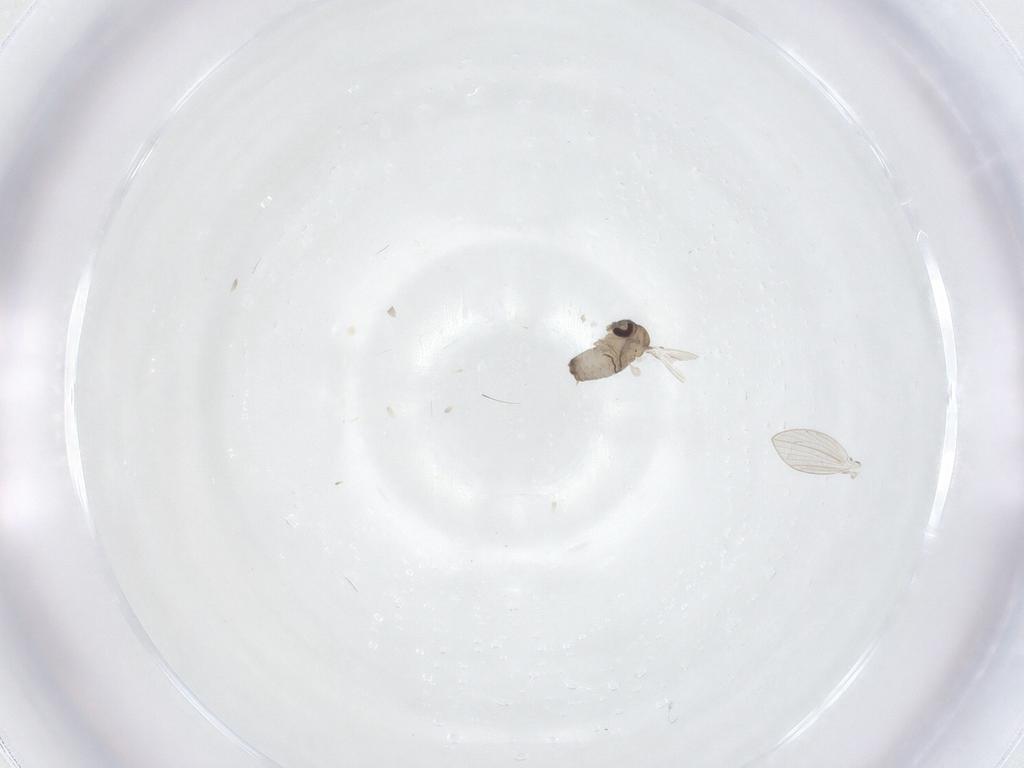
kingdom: Animalia
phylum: Arthropoda
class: Insecta
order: Diptera
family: Psychodidae
